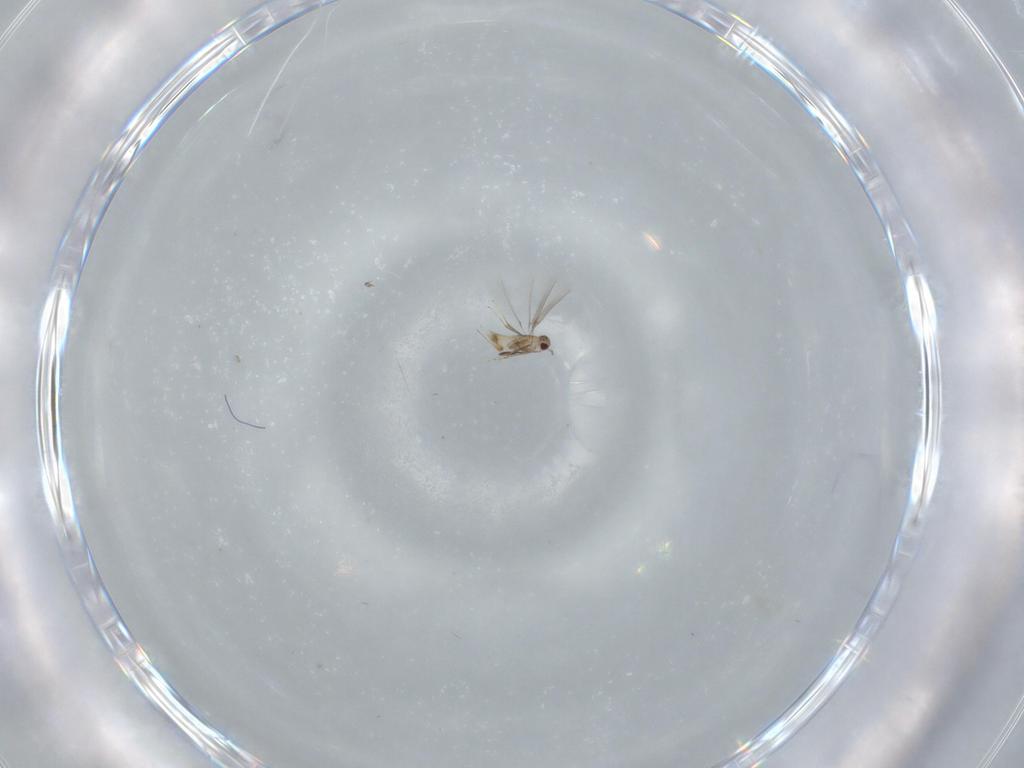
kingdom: Animalia
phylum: Arthropoda
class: Insecta
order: Hymenoptera
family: Mymaridae
